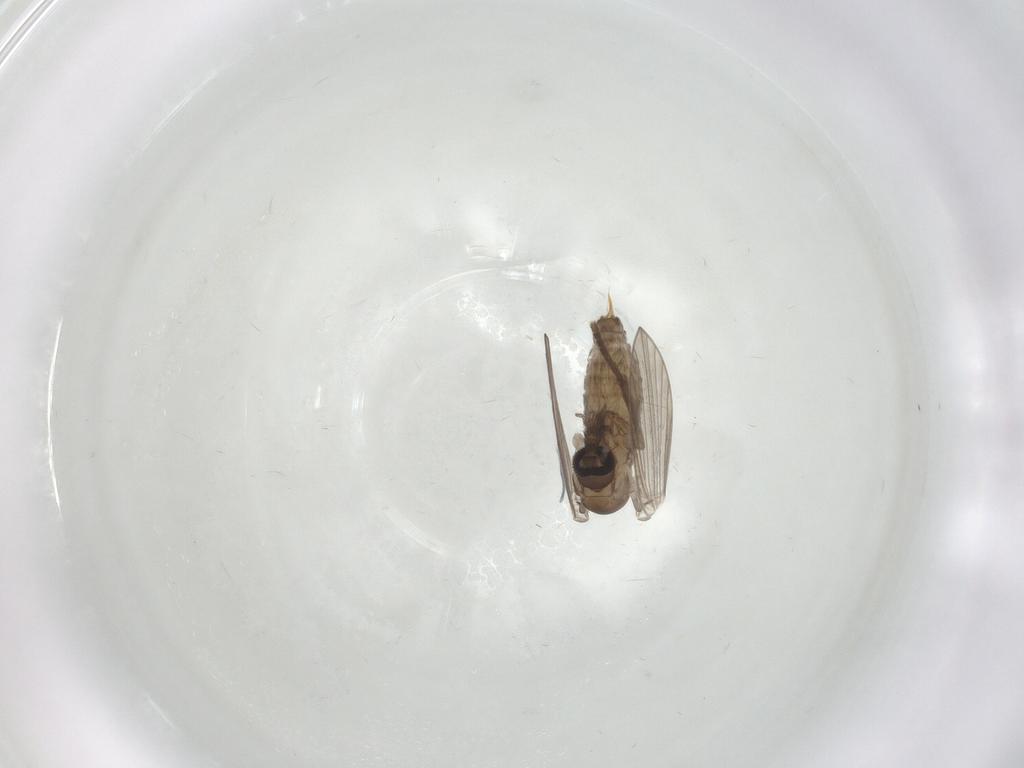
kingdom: Animalia
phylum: Arthropoda
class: Insecta
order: Diptera
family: Psychodidae
